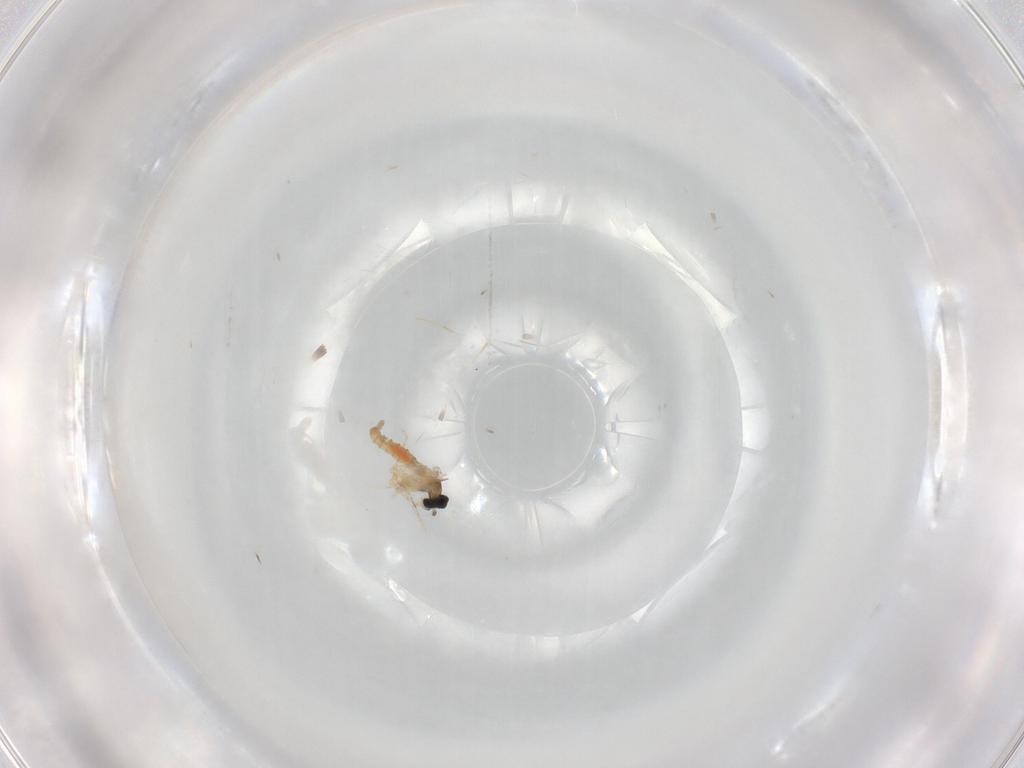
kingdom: Animalia
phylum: Arthropoda
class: Insecta
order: Diptera
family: Cecidomyiidae
